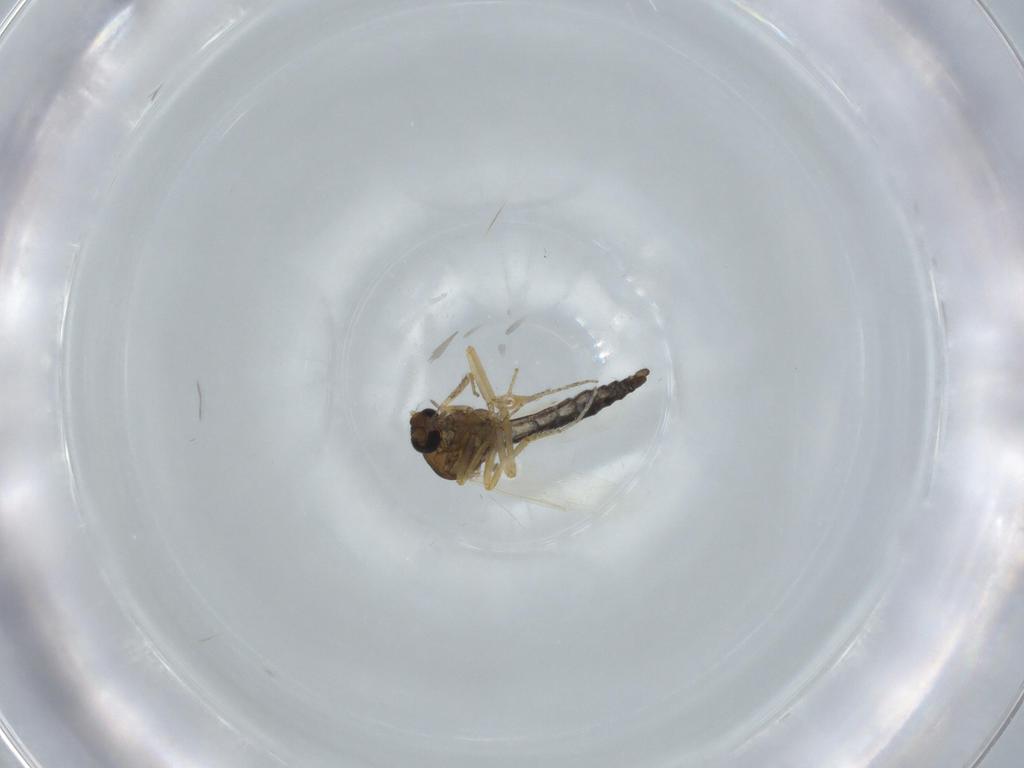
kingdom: Animalia
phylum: Arthropoda
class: Insecta
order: Diptera
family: Ceratopogonidae
